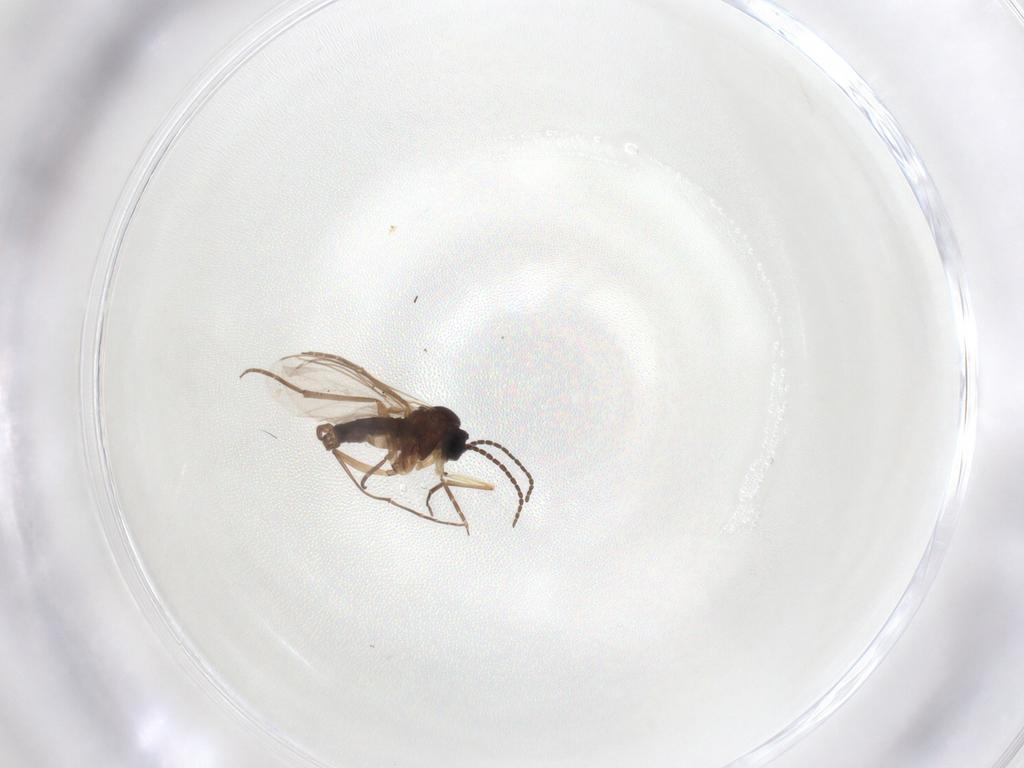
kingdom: Animalia
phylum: Arthropoda
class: Insecta
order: Diptera
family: Sciaridae
